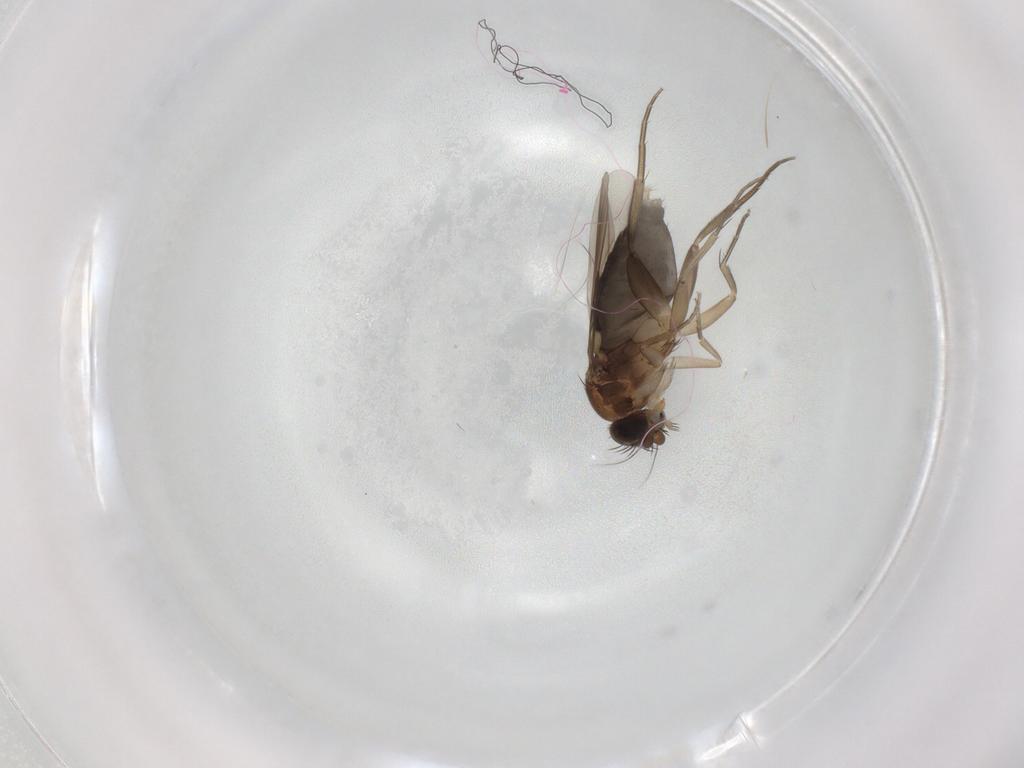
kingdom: Animalia
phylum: Arthropoda
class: Insecta
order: Diptera
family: Phoridae
